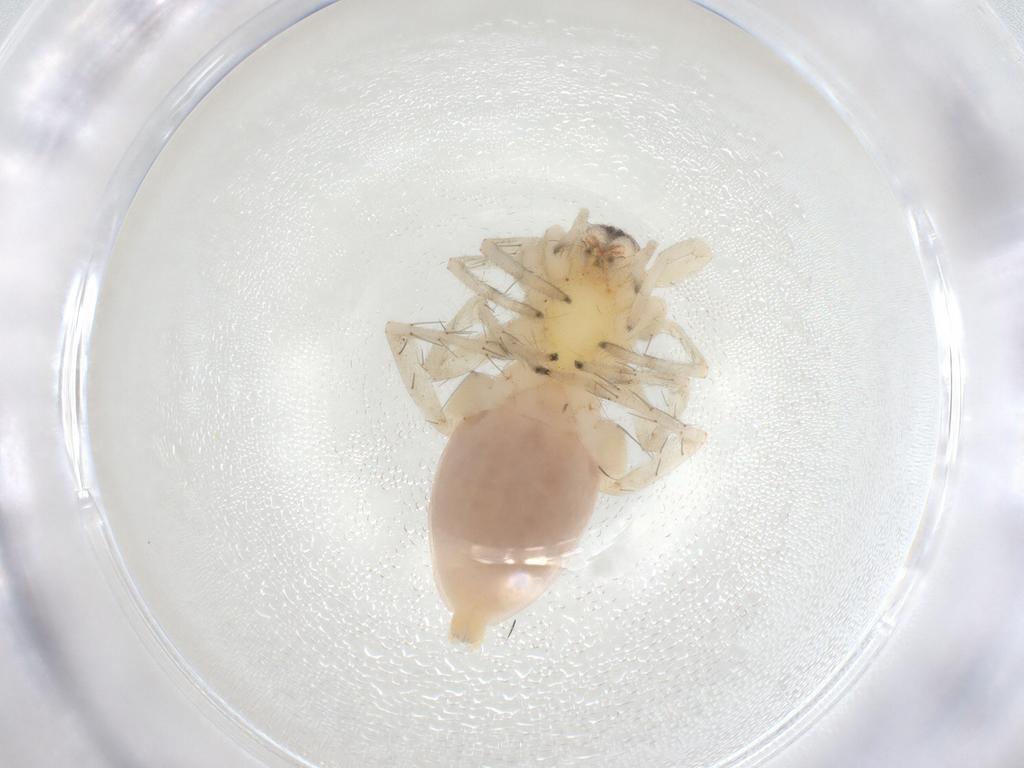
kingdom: Animalia
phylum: Arthropoda
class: Arachnida
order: Araneae
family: Clubionidae
